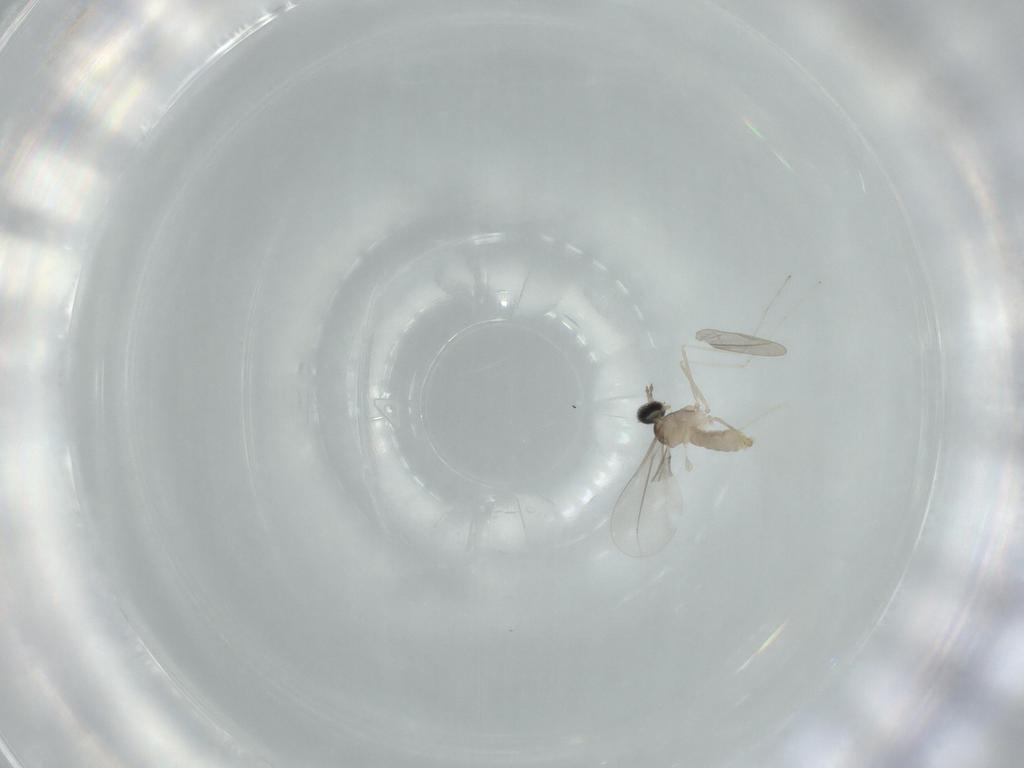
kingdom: Animalia
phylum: Arthropoda
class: Insecta
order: Diptera
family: Cecidomyiidae
